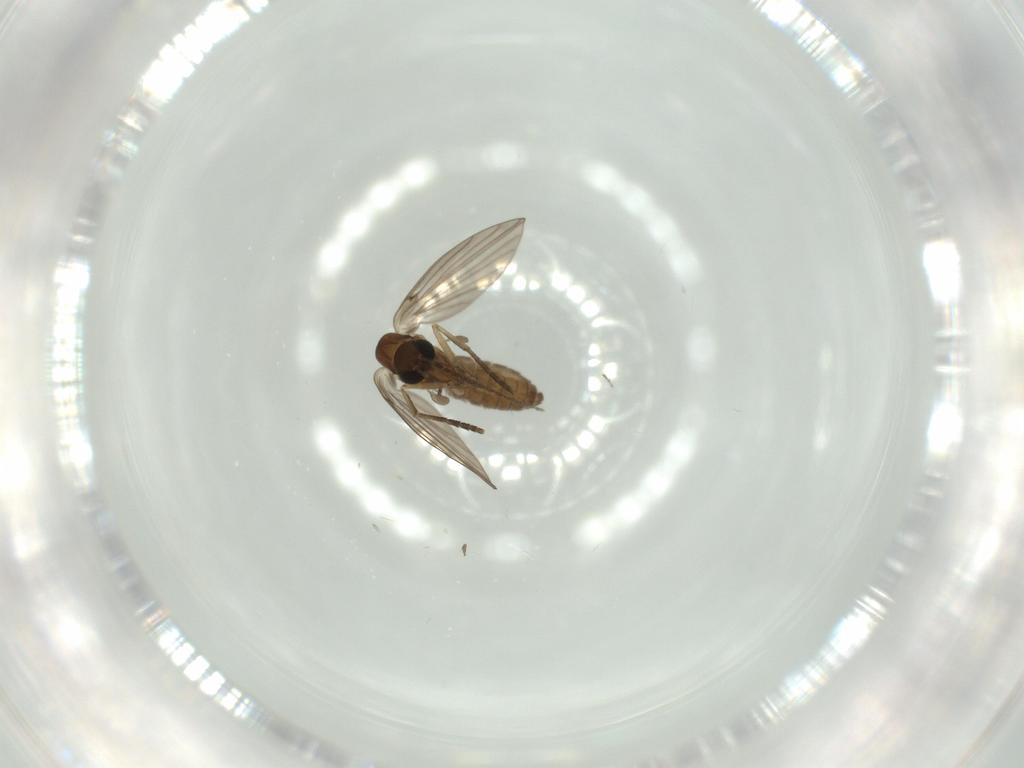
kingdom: Animalia
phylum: Arthropoda
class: Insecta
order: Diptera
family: Psychodidae
